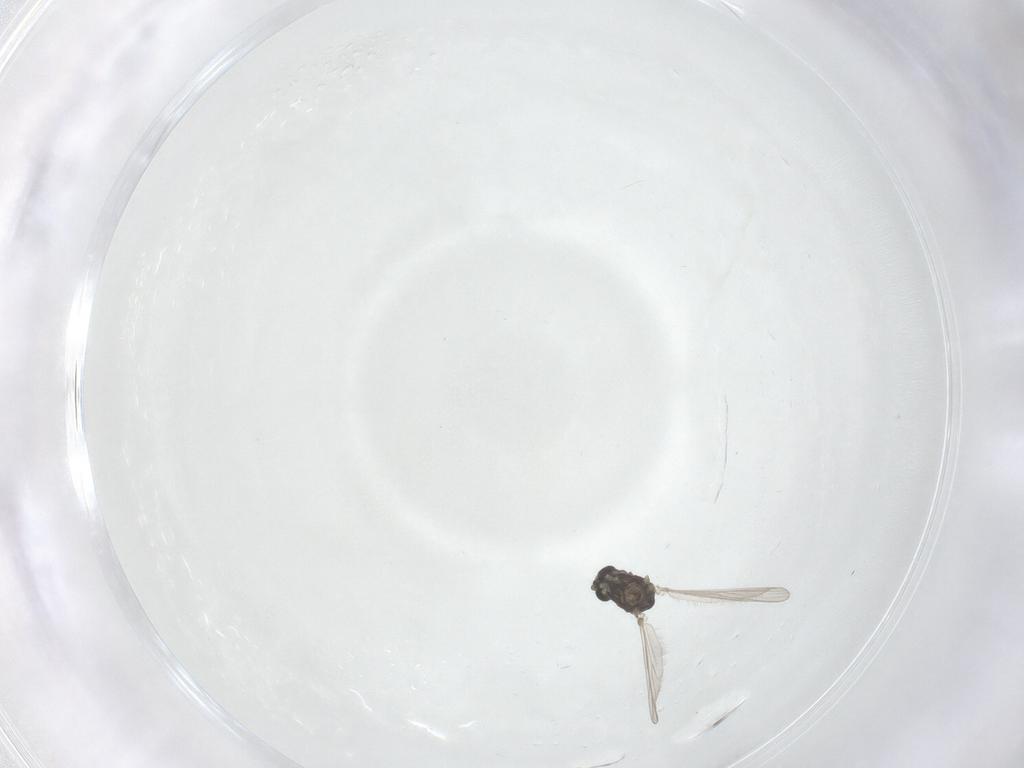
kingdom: Animalia
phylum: Arthropoda
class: Insecta
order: Diptera
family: Chironomidae
